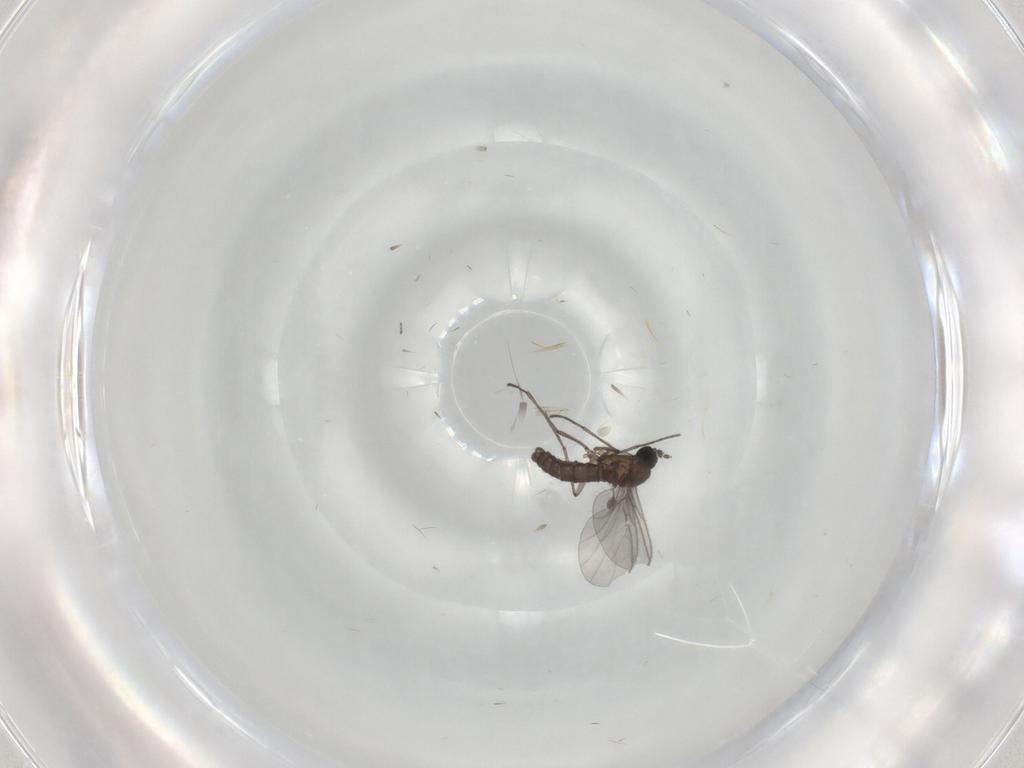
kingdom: Animalia
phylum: Arthropoda
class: Insecta
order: Diptera
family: Sciaridae
